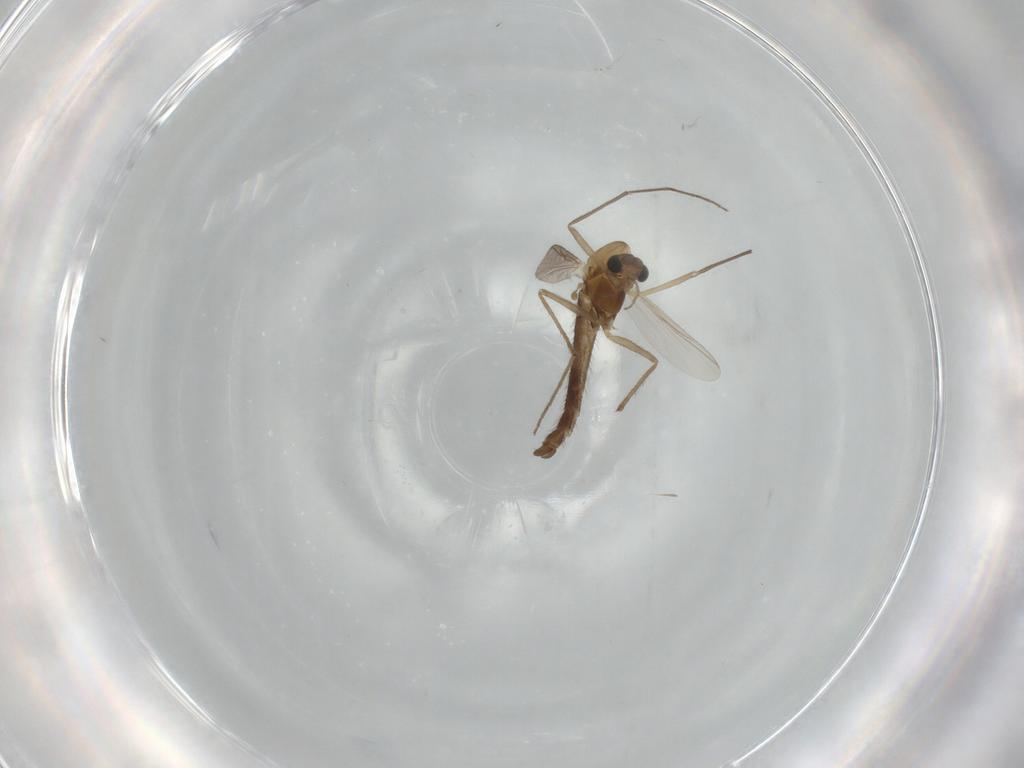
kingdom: Animalia
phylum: Arthropoda
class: Insecta
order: Diptera
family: Chironomidae
